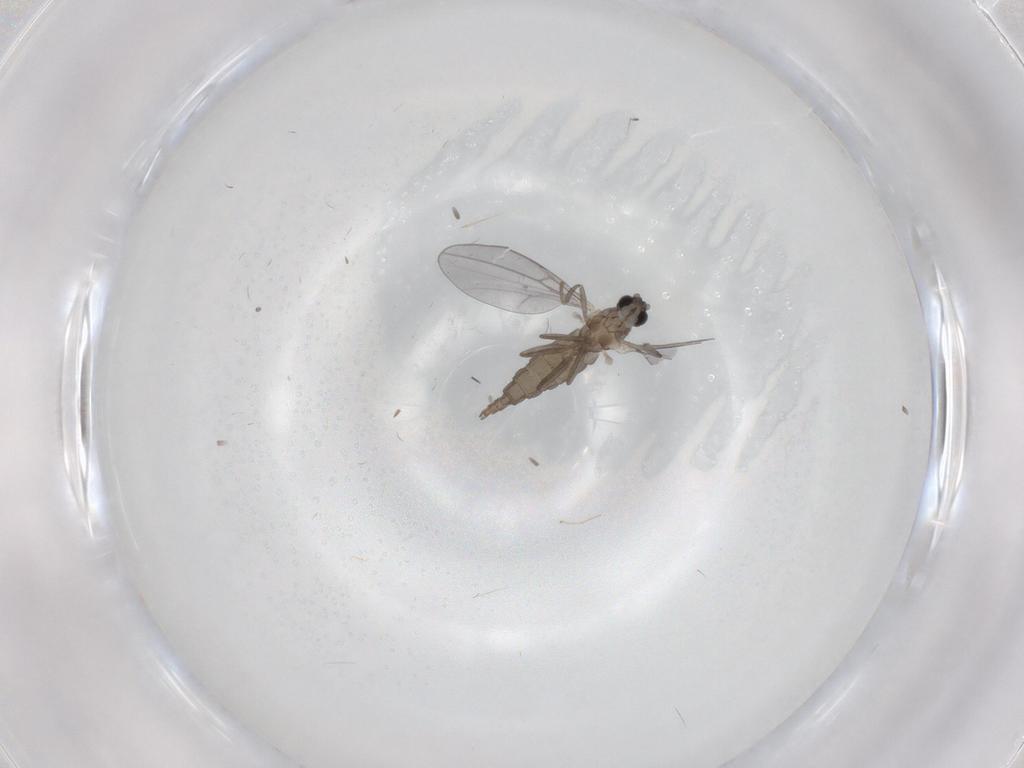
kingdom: Animalia
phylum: Arthropoda
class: Insecta
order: Diptera
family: Cecidomyiidae
